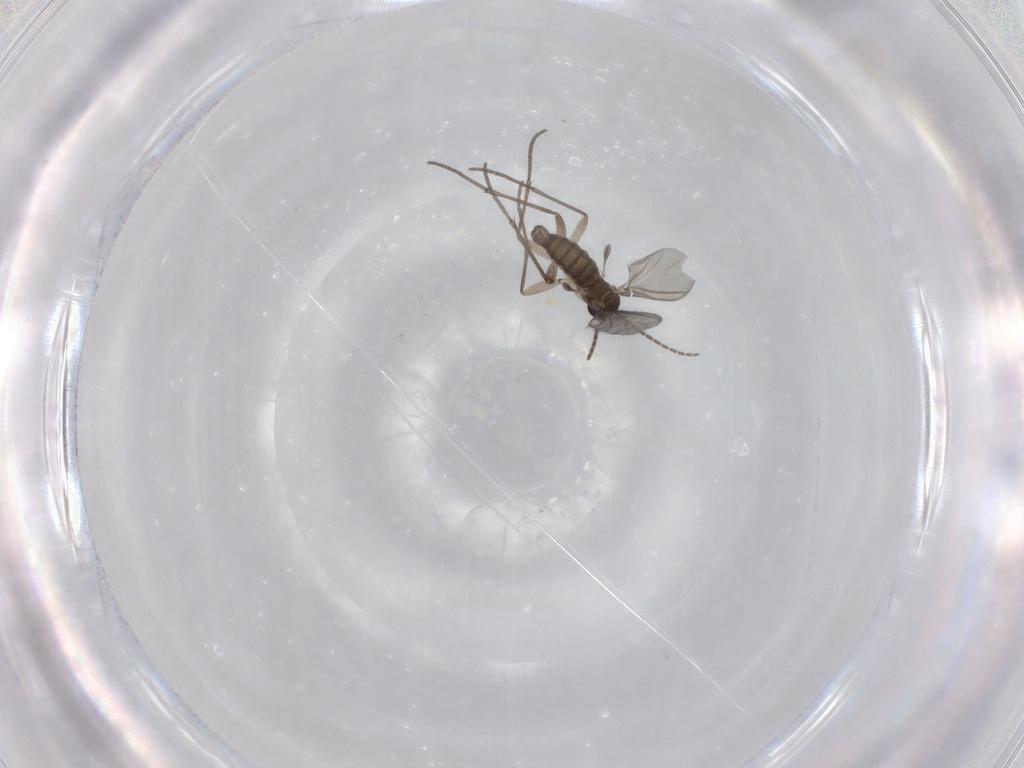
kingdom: Animalia
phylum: Arthropoda
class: Insecta
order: Diptera
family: Sciaridae
